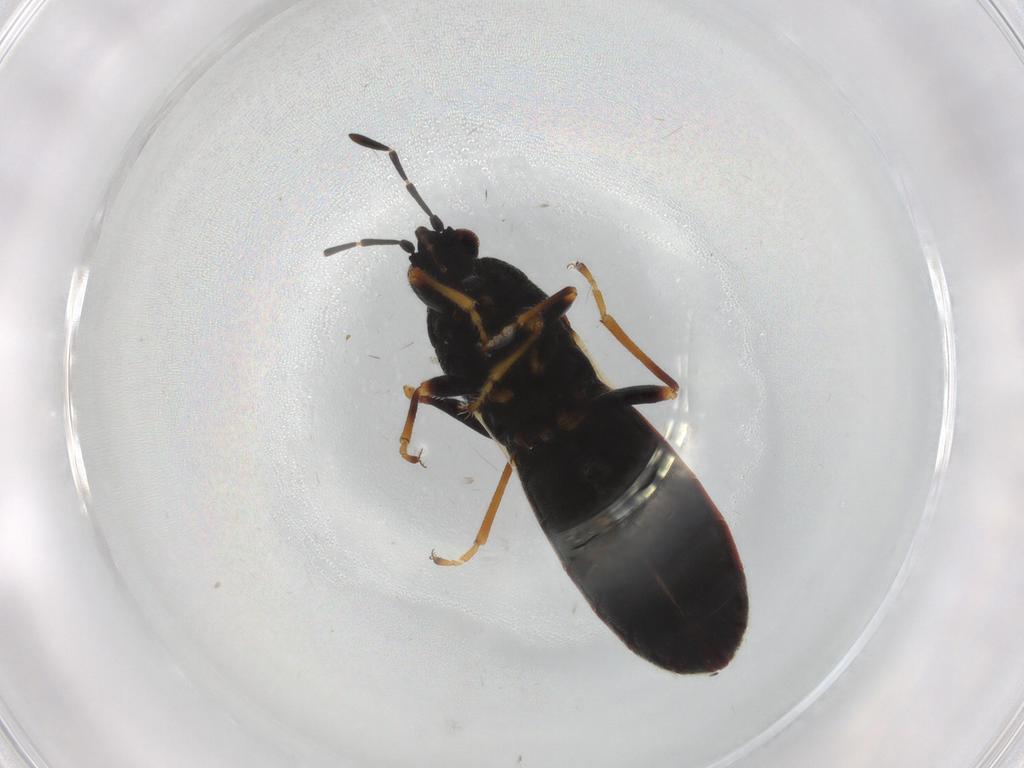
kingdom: Animalia
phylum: Arthropoda
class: Insecta
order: Hemiptera
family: Blissidae
